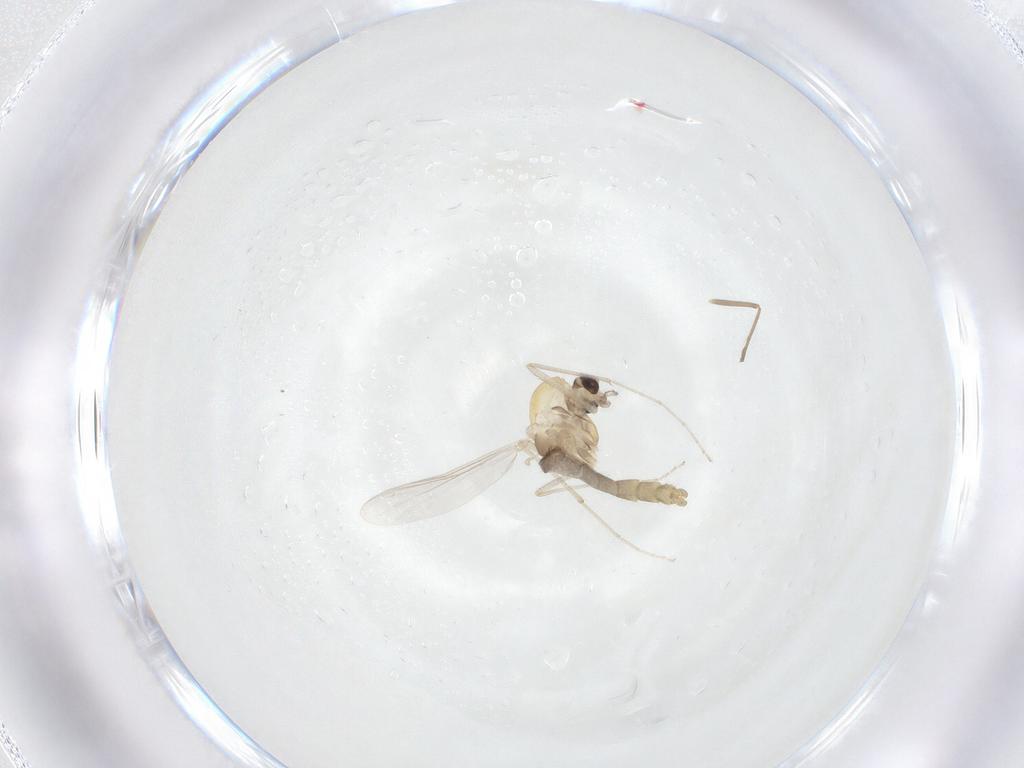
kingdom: Animalia
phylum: Arthropoda
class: Insecta
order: Diptera
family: Chironomidae
